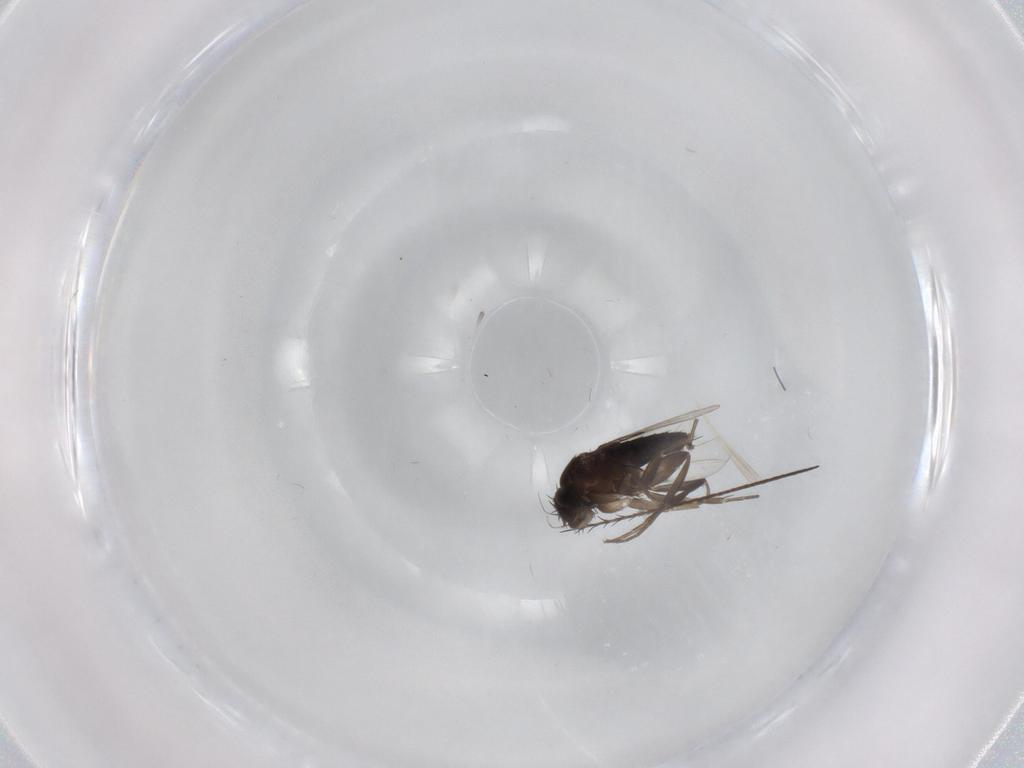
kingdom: Animalia
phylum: Arthropoda
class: Insecta
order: Diptera
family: Phoridae
